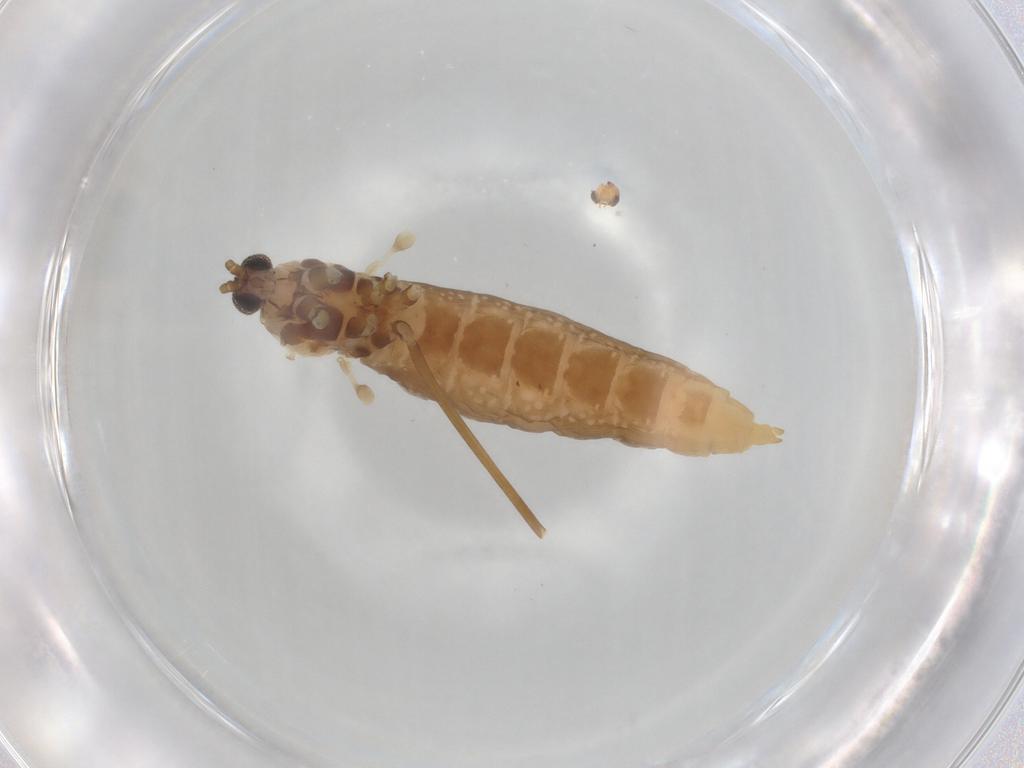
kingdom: Animalia
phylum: Arthropoda
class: Insecta
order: Diptera
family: Cecidomyiidae
